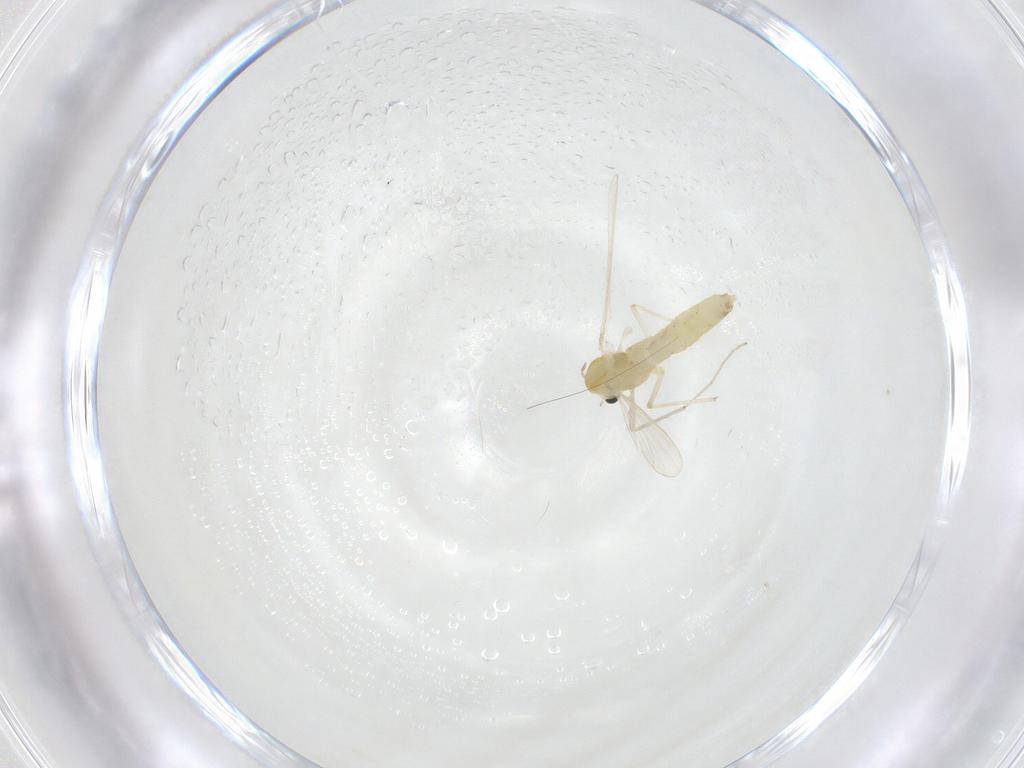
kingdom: Animalia
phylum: Arthropoda
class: Insecta
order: Diptera
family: Chironomidae
